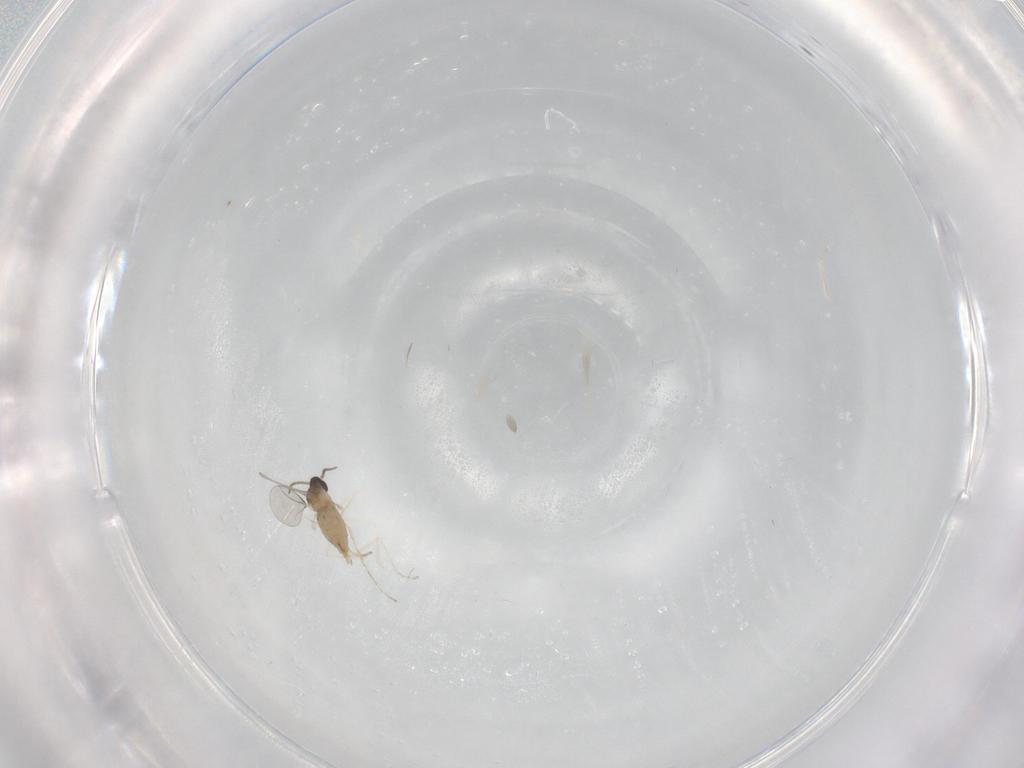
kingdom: Animalia
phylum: Arthropoda
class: Insecta
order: Diptera
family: Cecidomyiidae
